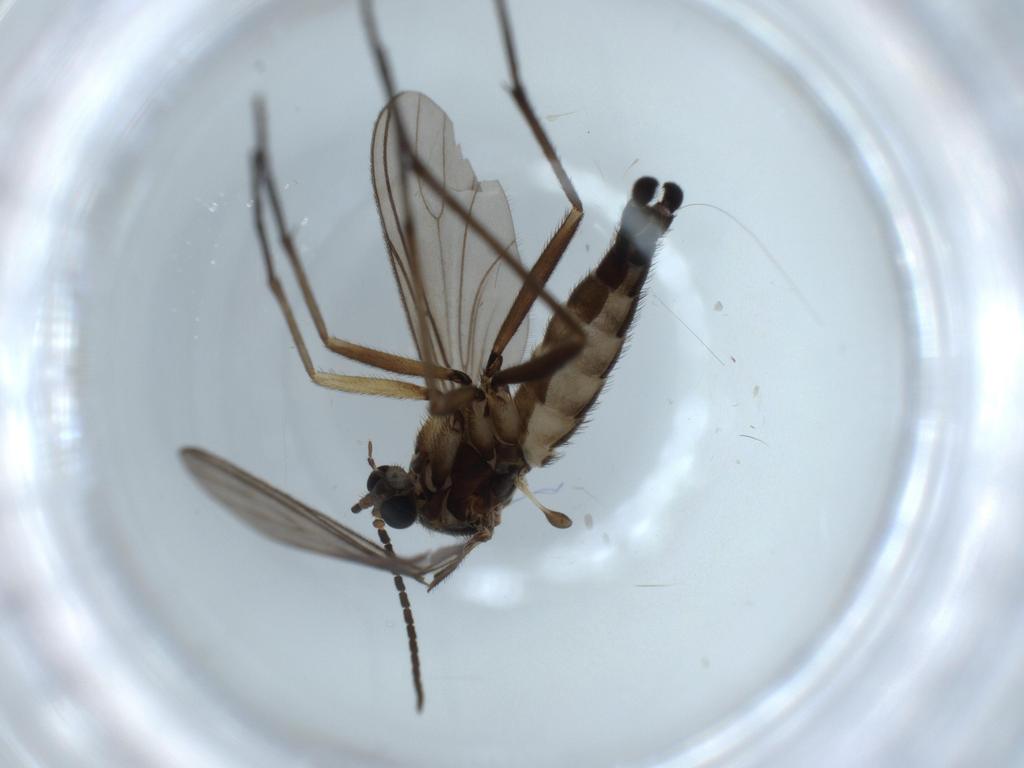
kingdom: Animalia
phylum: Arthropoda
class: Insecta
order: Diptera
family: Sciaridae
